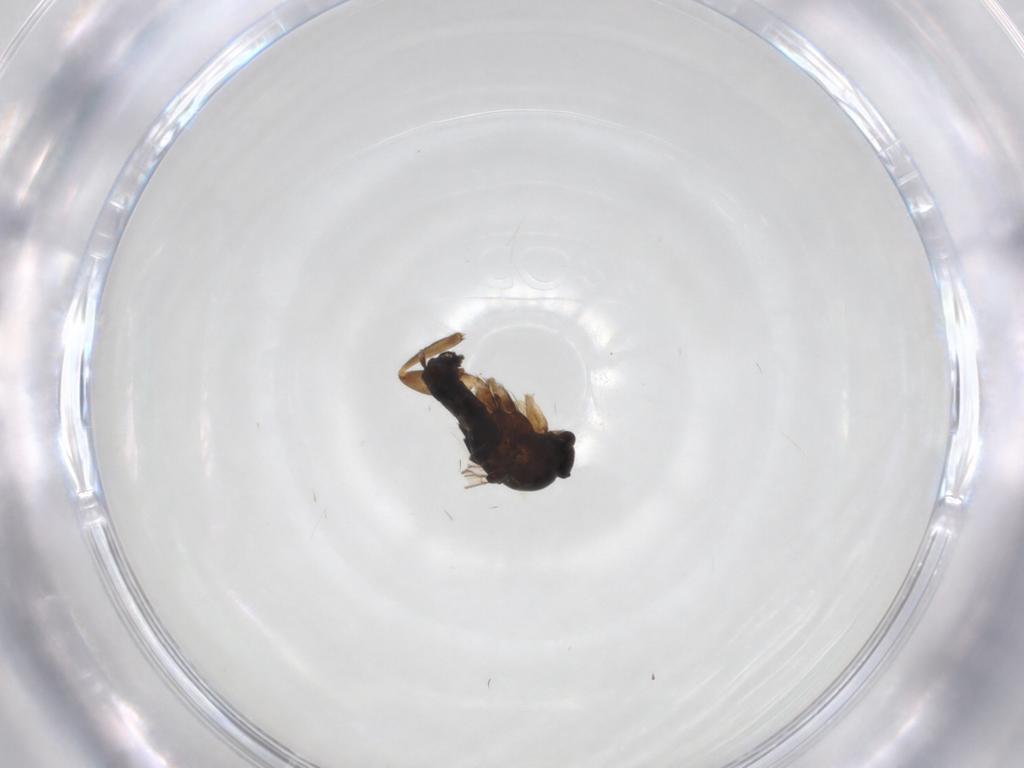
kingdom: Animalia
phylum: Arthropoda
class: Insecta
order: Diptera
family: Phoridae
